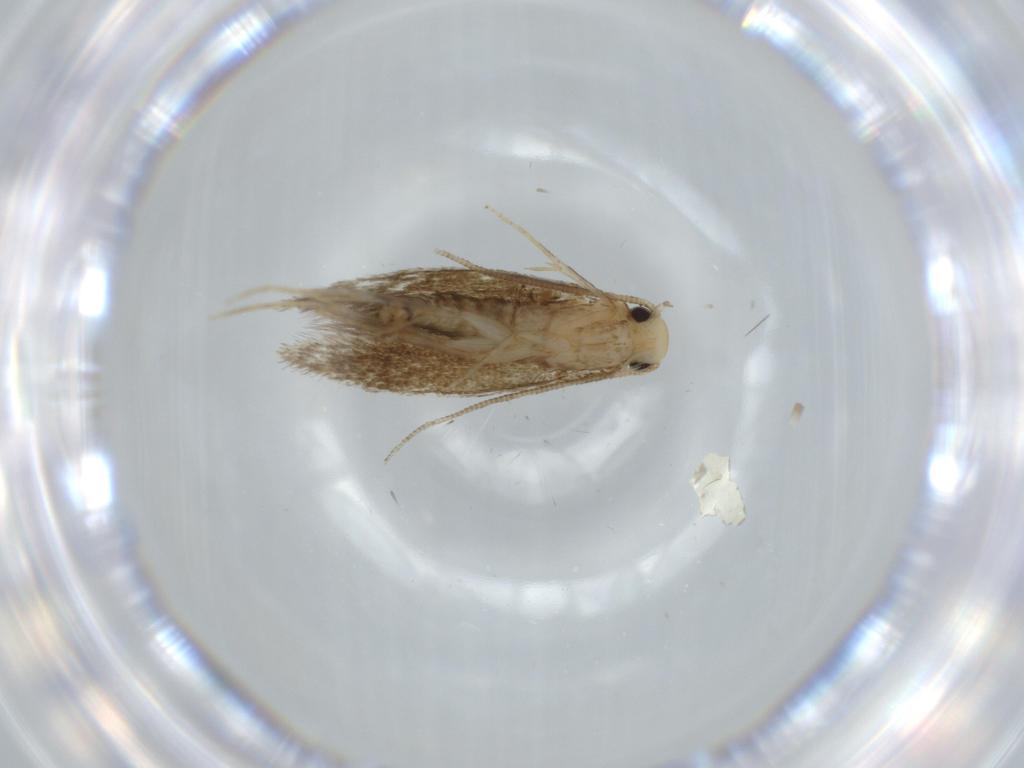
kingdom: Animalia
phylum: Arthropoda
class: Insecta
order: Lepidoptera
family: Tineidae
